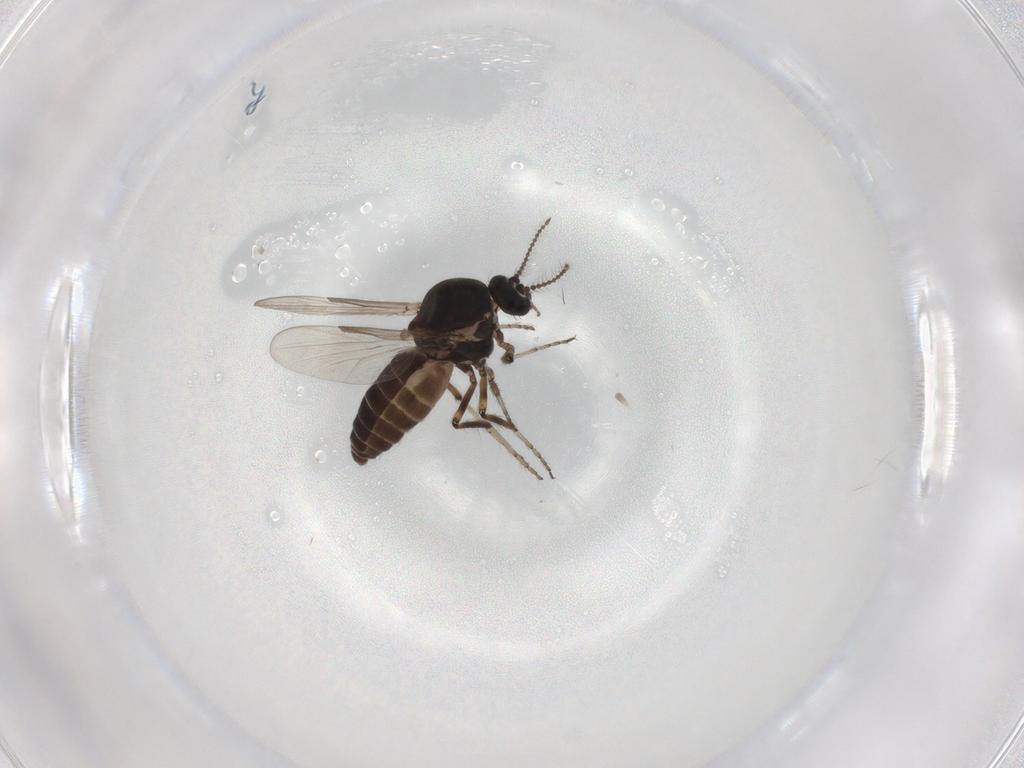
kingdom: Animalia
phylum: Arthropoda
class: Insecta
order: Diptera
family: Ceratopogonidae
